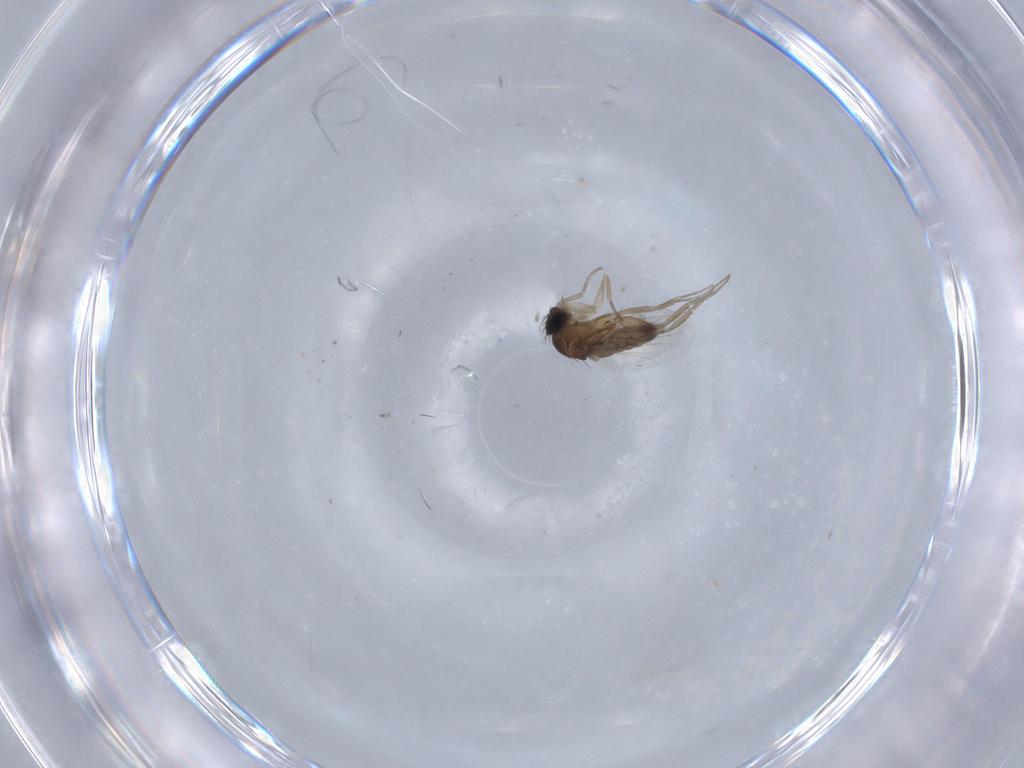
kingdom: Animalia
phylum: Arthropoda
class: Insecta
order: Diptera
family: Phoridae
